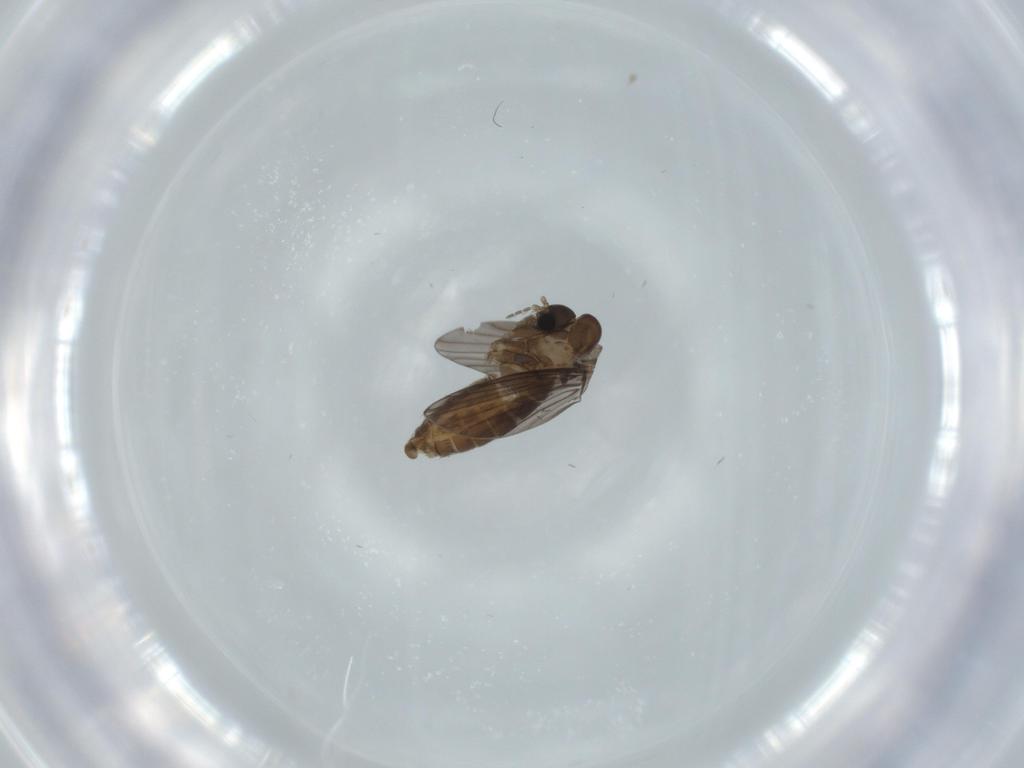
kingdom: Animalia
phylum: Arthropoda
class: Insecta
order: Diptera
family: Psychodidae
